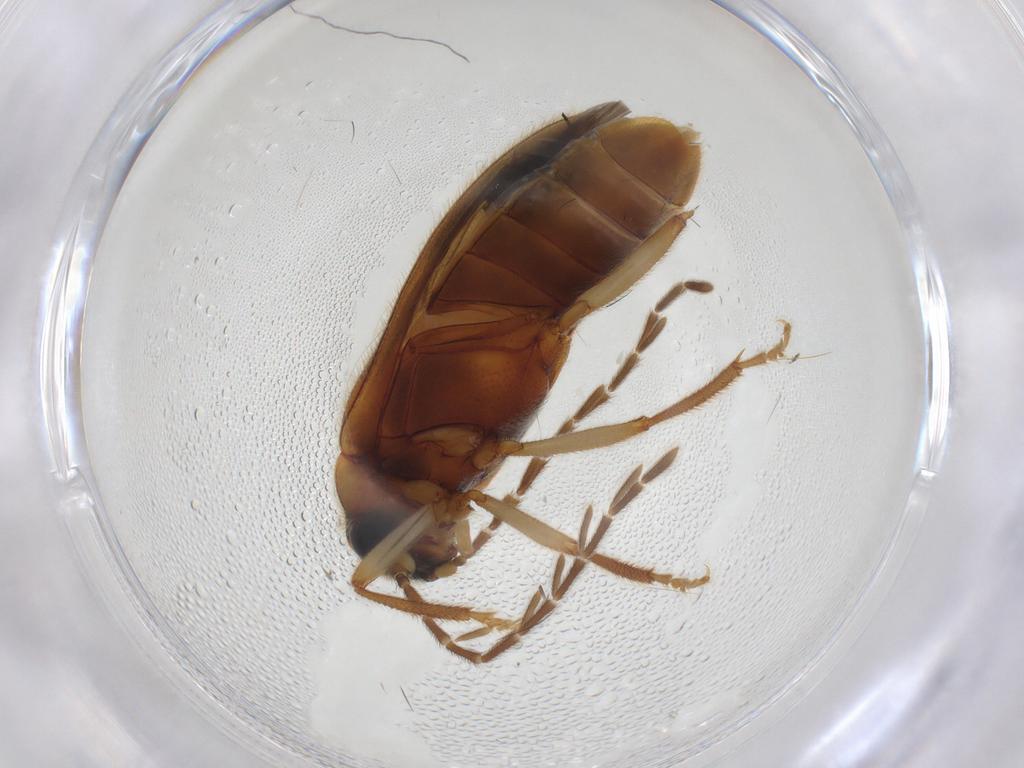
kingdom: Animalia
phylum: Arthropoda
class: Insecta
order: Coleoptera
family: Ptilodactylidae
